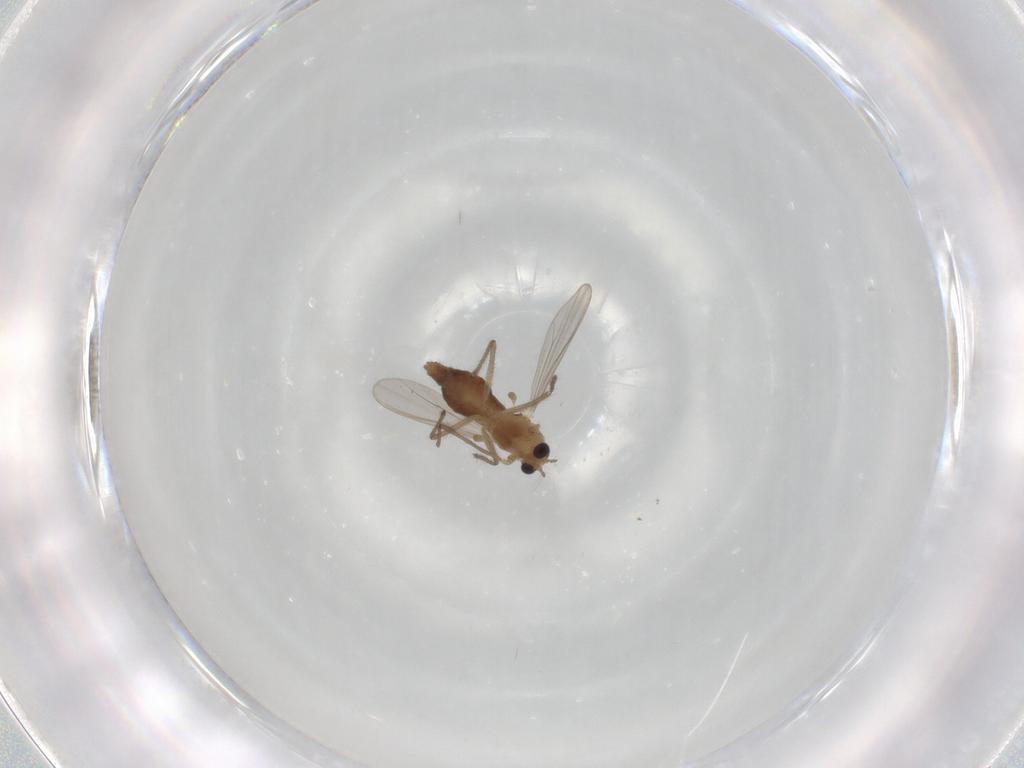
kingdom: Animalia
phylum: Arthropoda
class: Insecta
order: Diptera
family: Chironomidae
